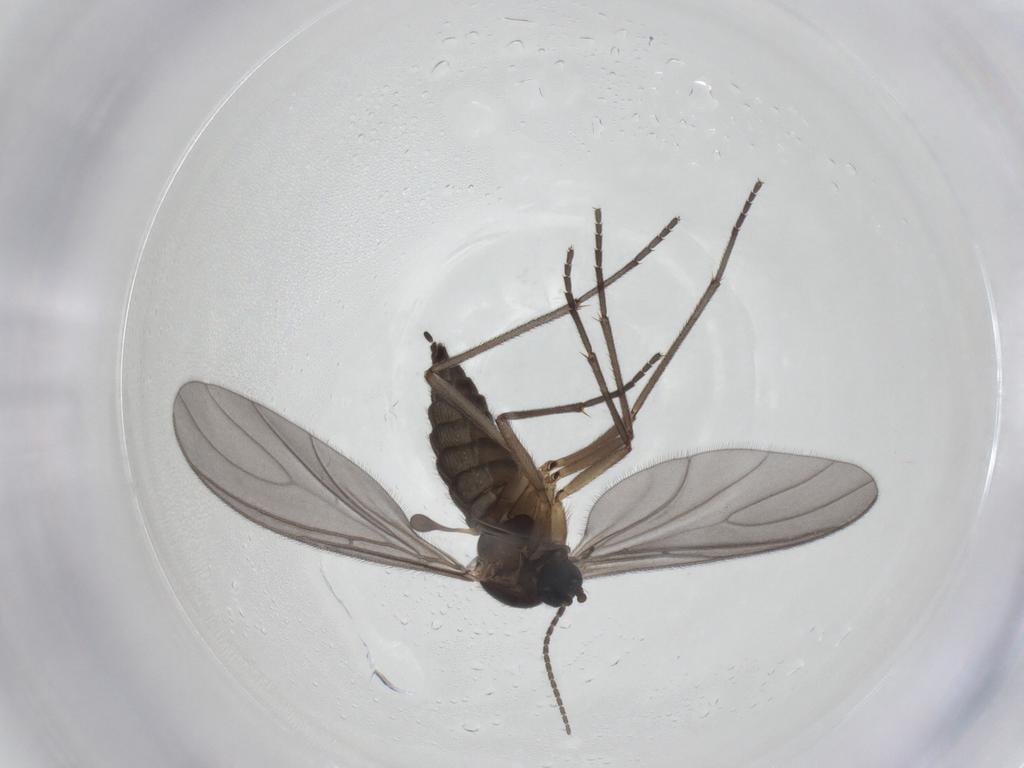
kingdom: Animalia
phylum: Arthropoda
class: Insecta
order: Diptera
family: Sciaridae
